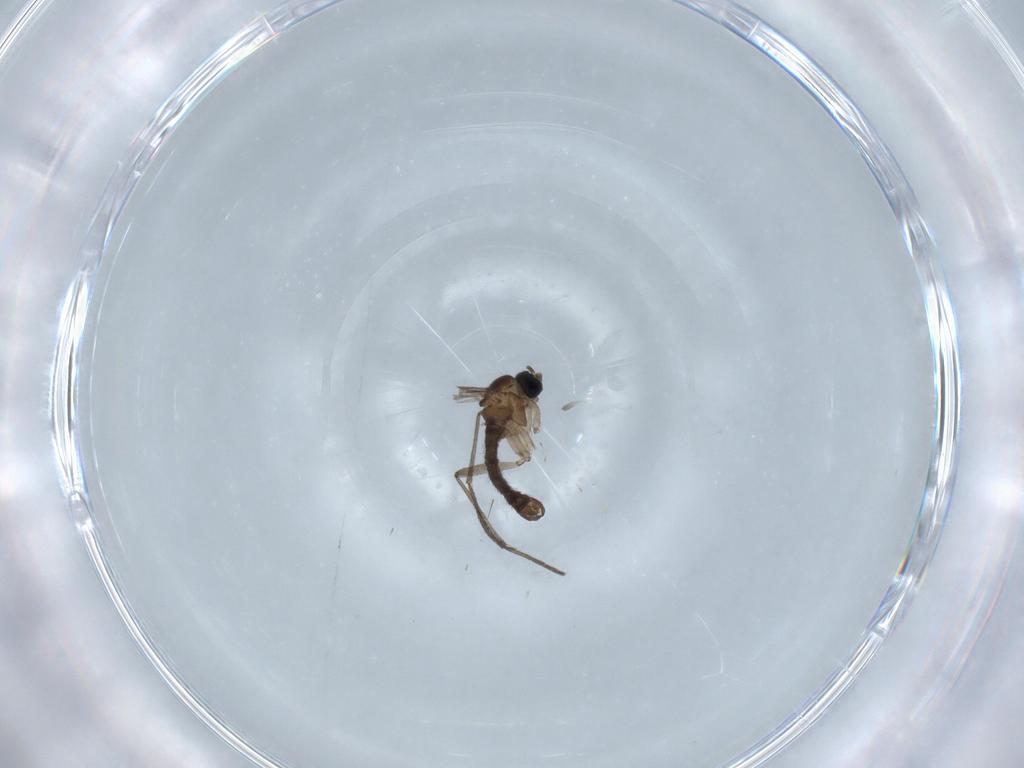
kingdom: Animalia
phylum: Arthropoda
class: Insecta
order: Diptera
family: Sciaridae
